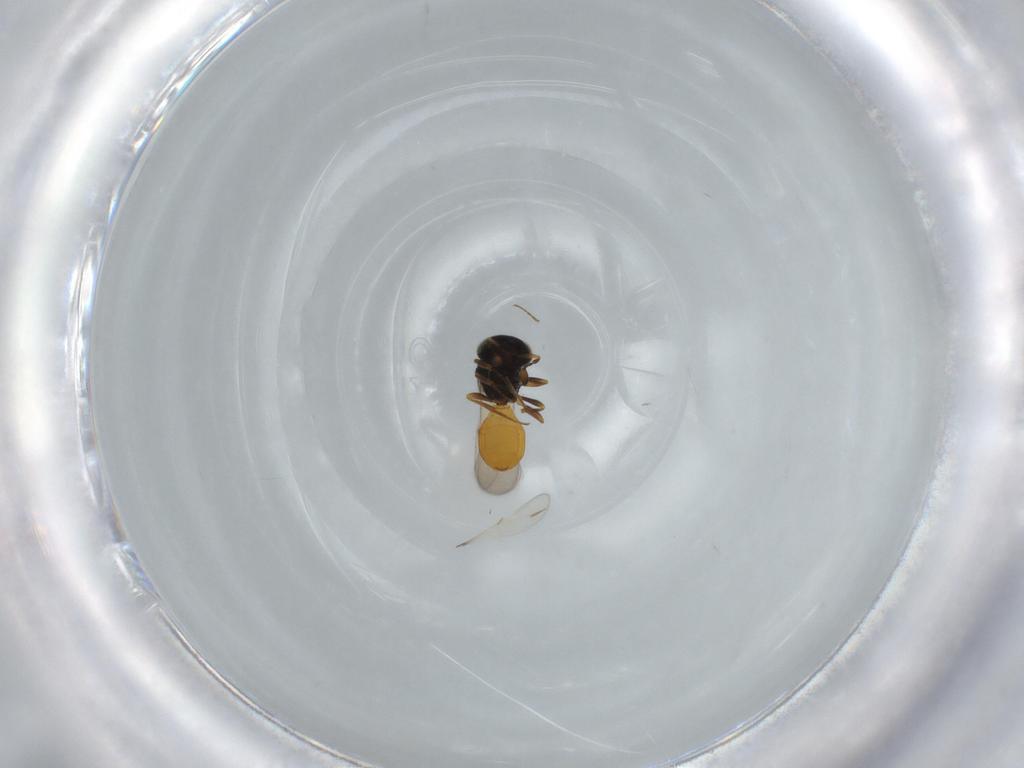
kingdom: Animalia
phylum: Arthropoda
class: Insecta
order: Hymenoptera
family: Scelionidae
